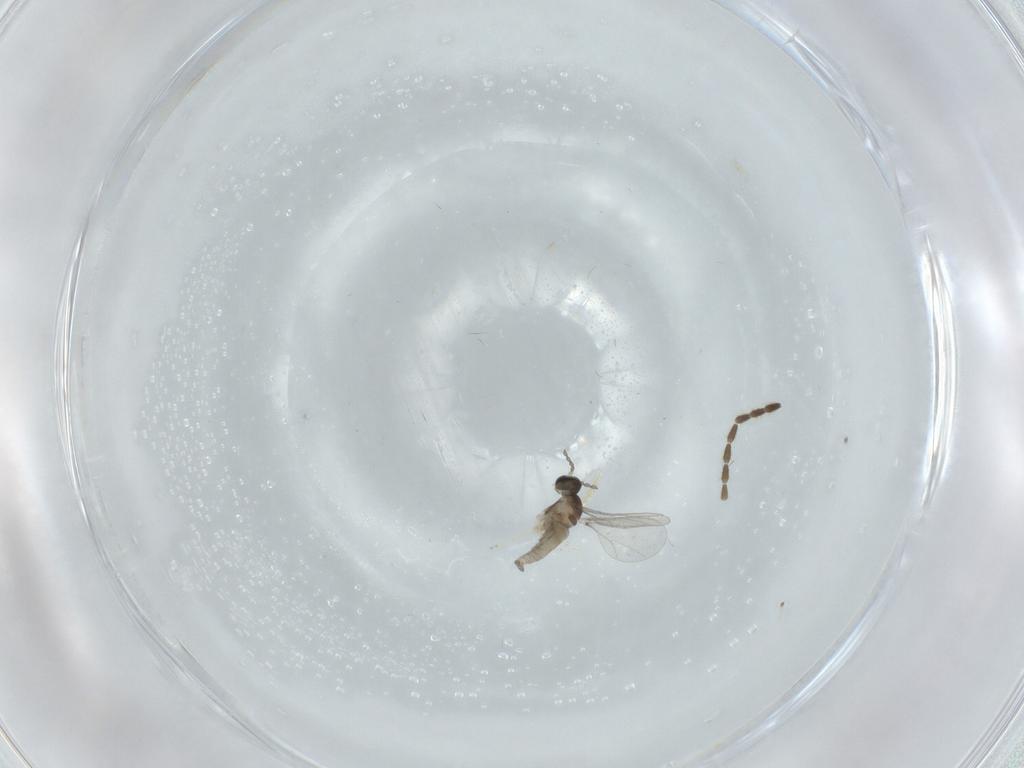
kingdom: Animalia
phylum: Arthropoda
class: Insecta
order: Diptera
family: Cecidomyiidae
